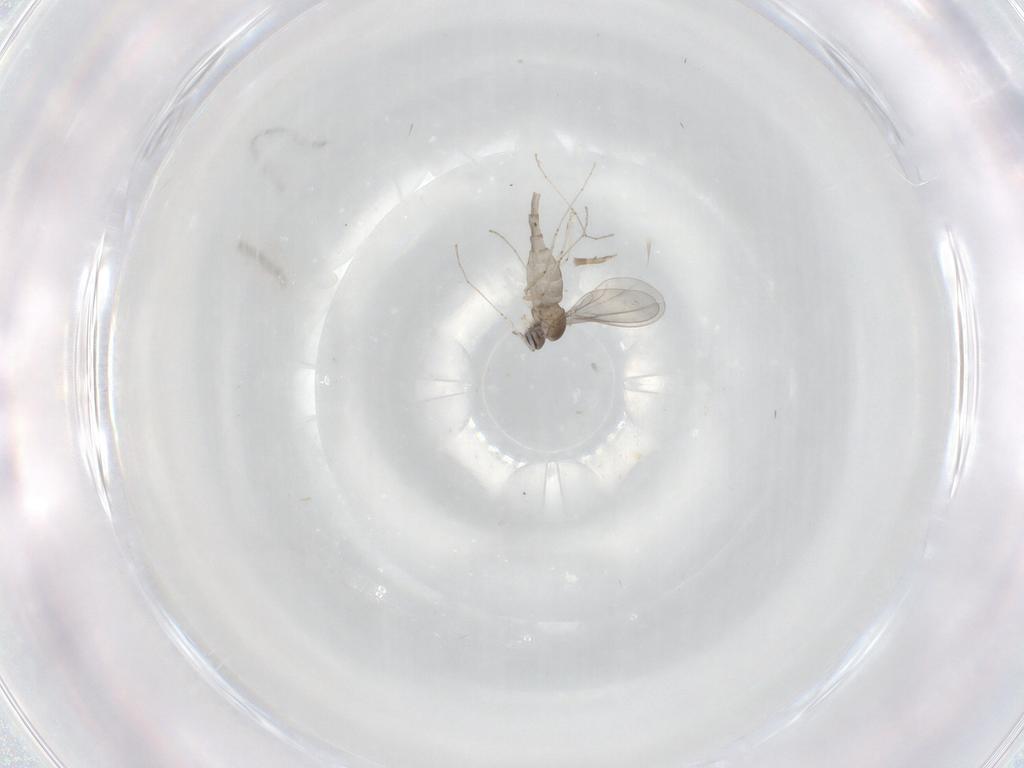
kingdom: Animalia
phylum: Arthropoda
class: Insecta
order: Diptera
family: Cecidomyiidae
